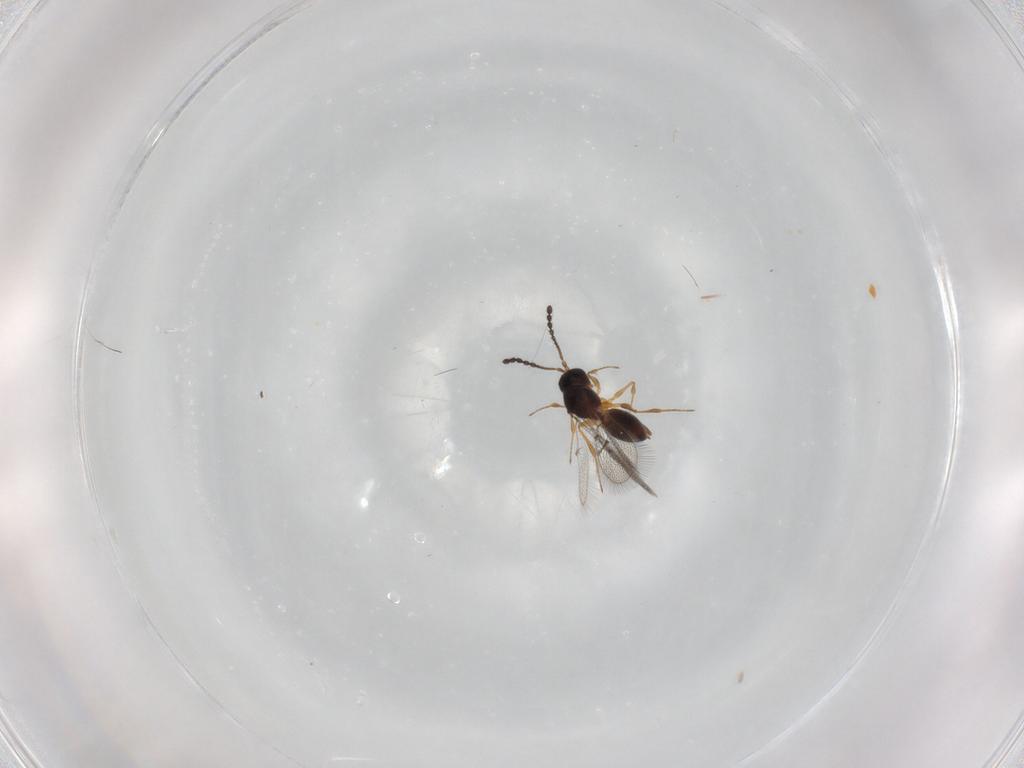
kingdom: Animalia
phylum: Arthropoda
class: Insecta
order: Hymenoptera
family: Figitidae
